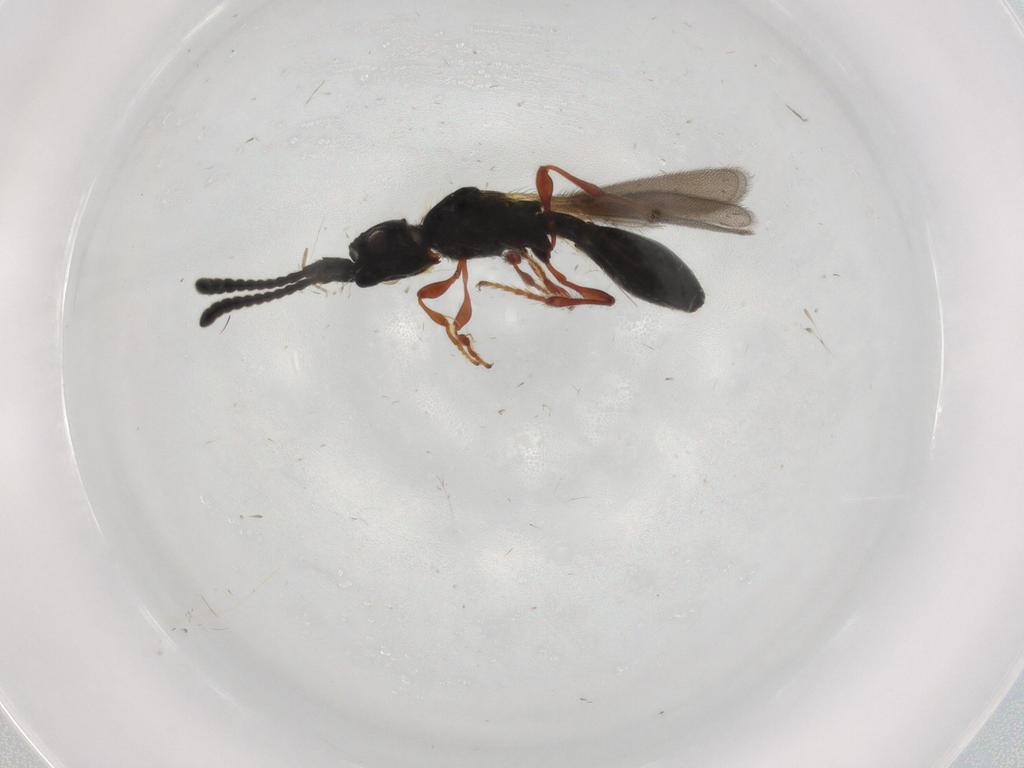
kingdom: Animalia
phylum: Arthropoda
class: Insecta
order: Hymenoptera
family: Diapriidae
